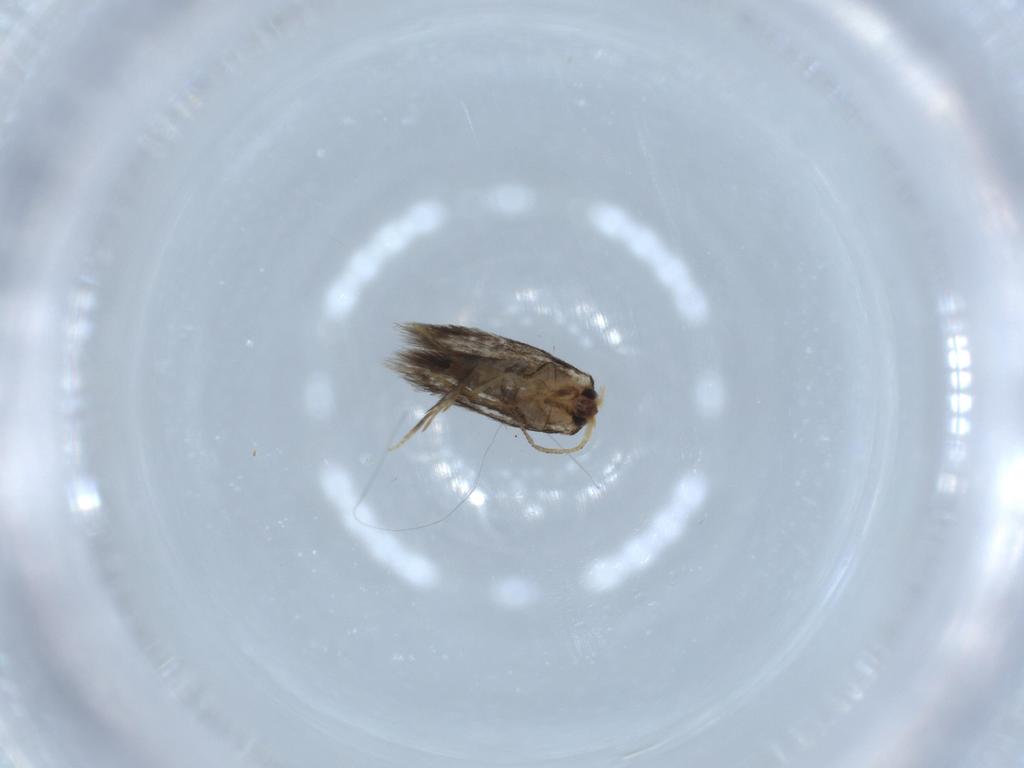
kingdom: Animalia
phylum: Arthropoda
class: Insecta
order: Lepidoptera
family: Nepticulidae
